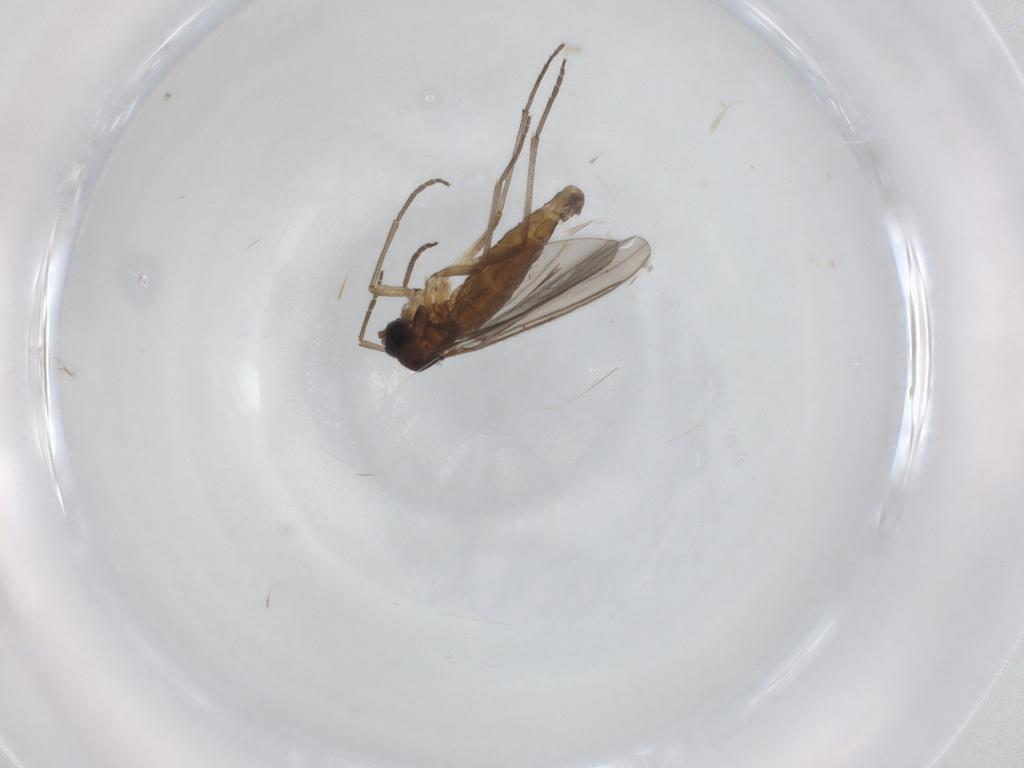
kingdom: Animalia
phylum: Arthropoda
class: Insecta
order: Diptera
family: Sciaridae
